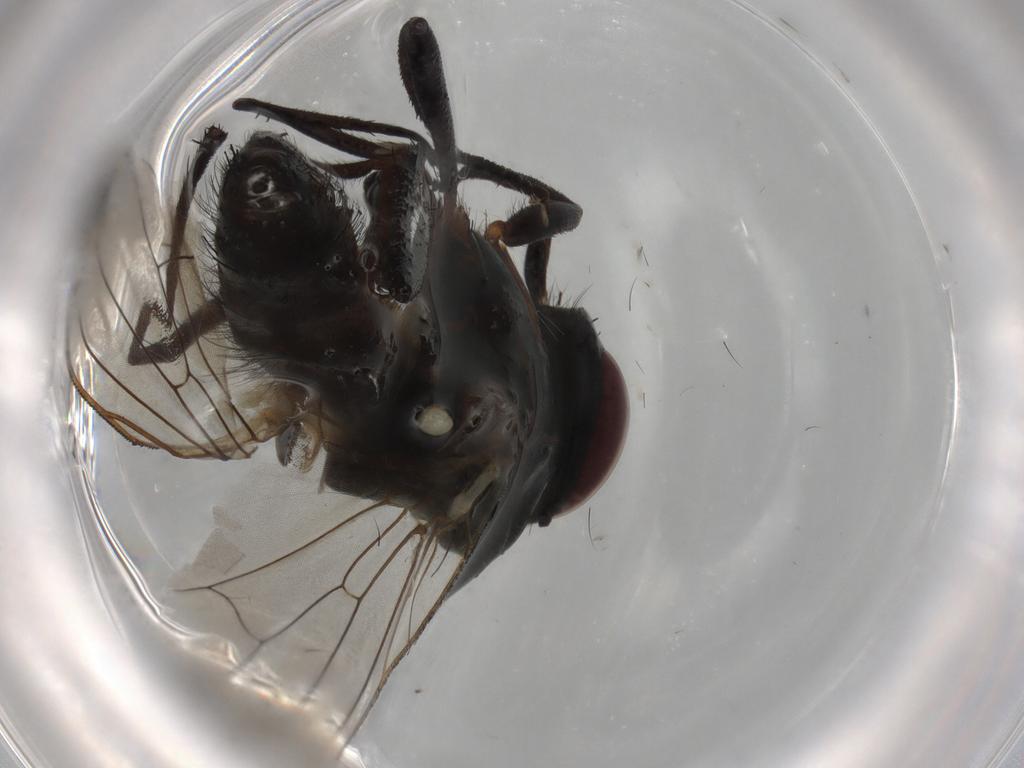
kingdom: Animalia
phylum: Arthropoda
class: Insecta
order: Diptera
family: Anthomyiidae
